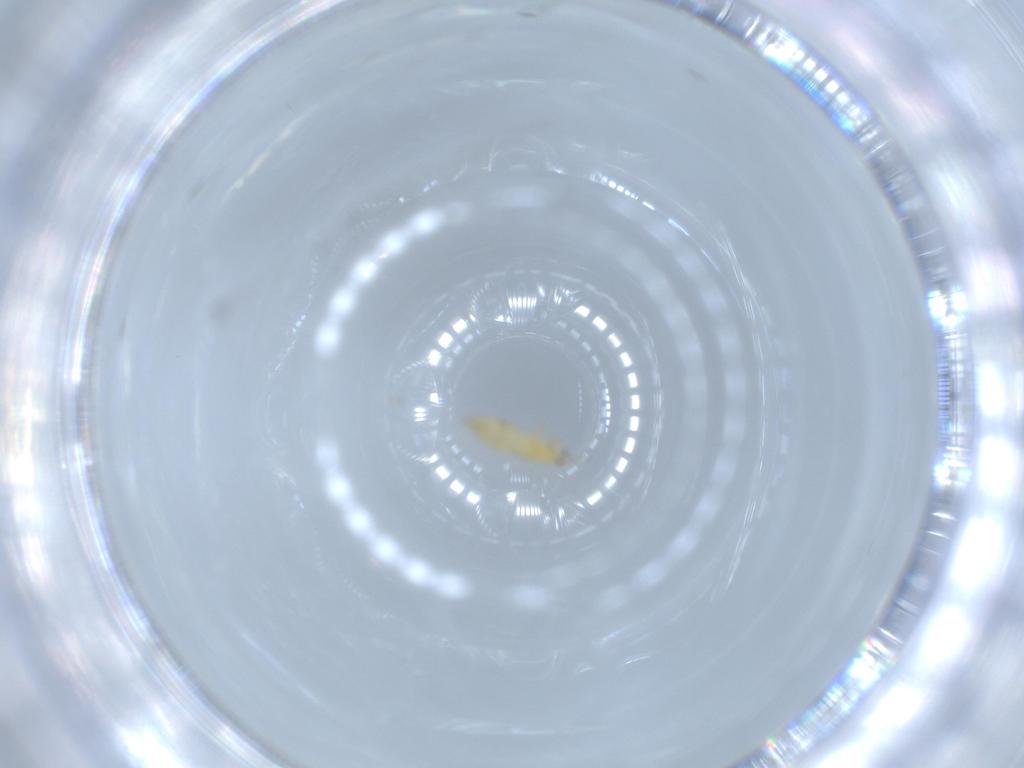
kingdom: Animalia
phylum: Arthropoda
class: Insecta
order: Thysanoptera
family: Thripidae
